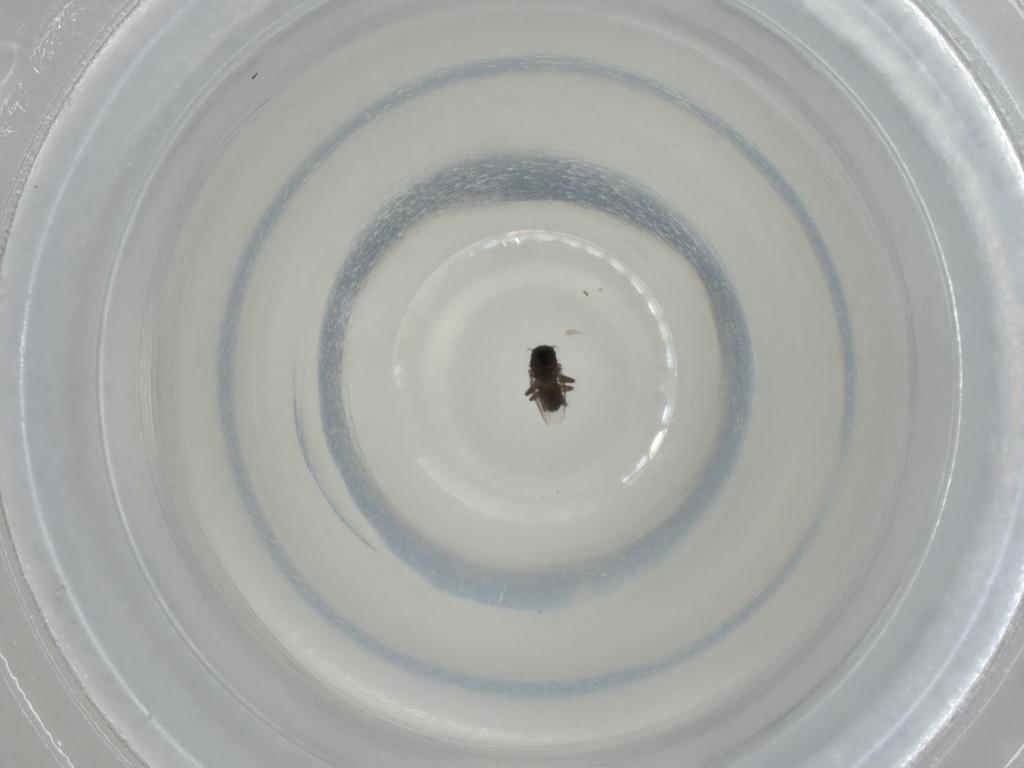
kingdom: Animalia
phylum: Arthropoda
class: Insecta
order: Diptera
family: Sphaeroceridae
